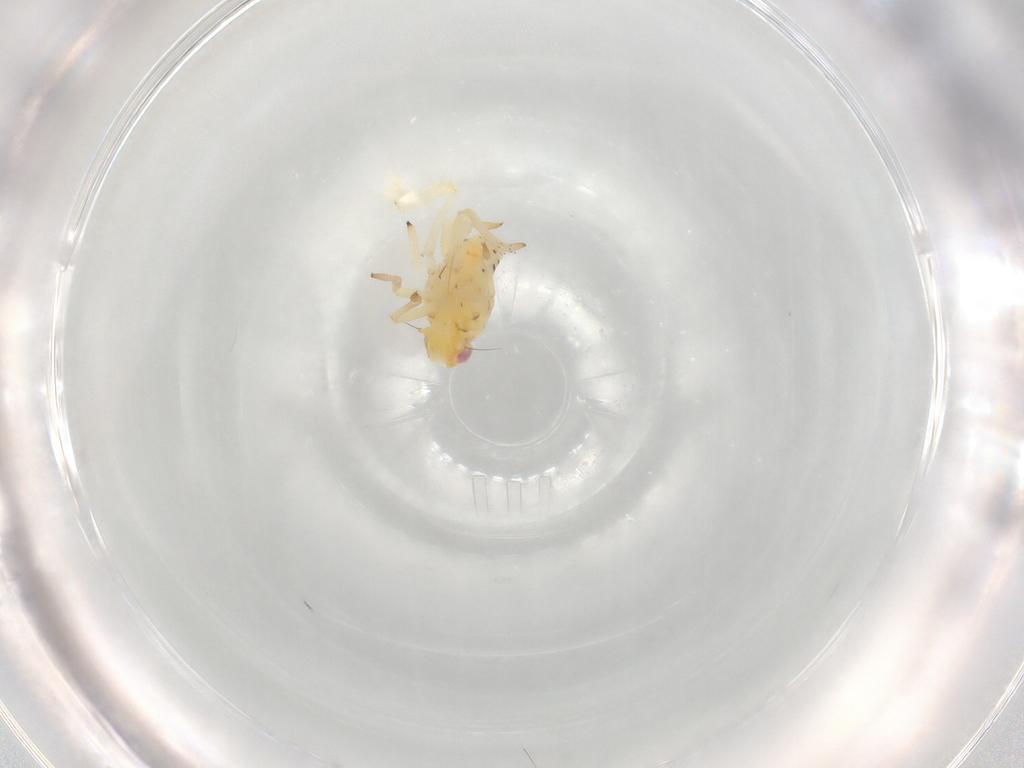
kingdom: Animalia
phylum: Arthropoda
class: Insecta
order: Hemiptera
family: Tropiduchidae
